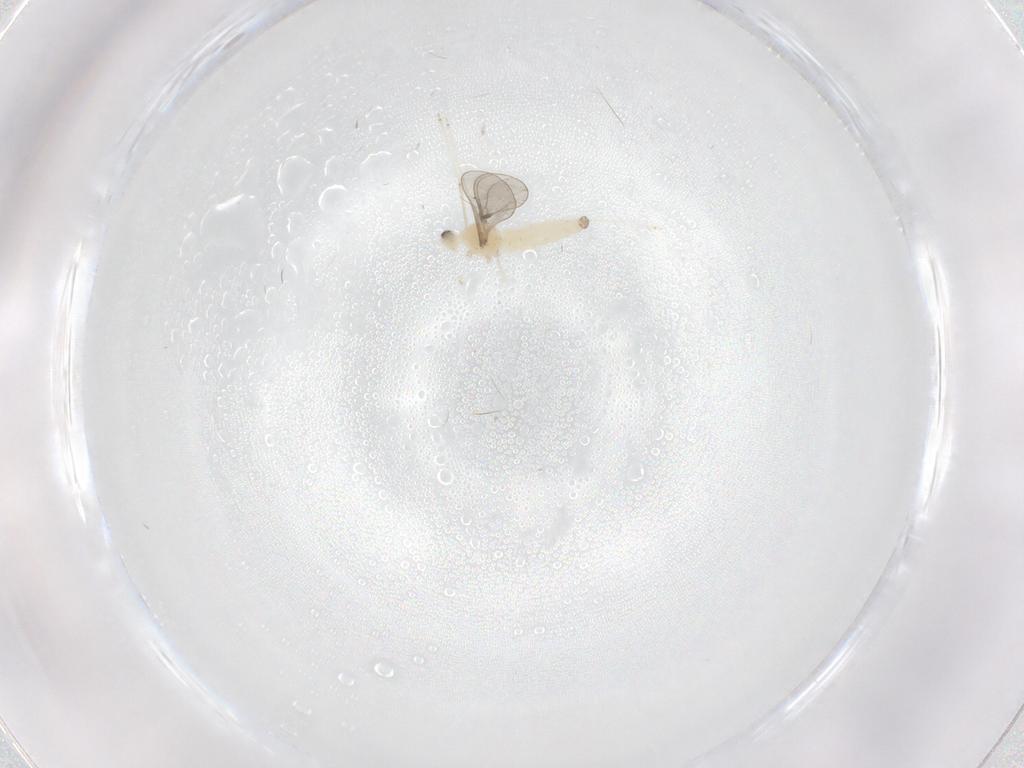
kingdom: Animalia
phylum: Arthropoda
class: Insecta
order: Diptera
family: Cecidomyiidae
